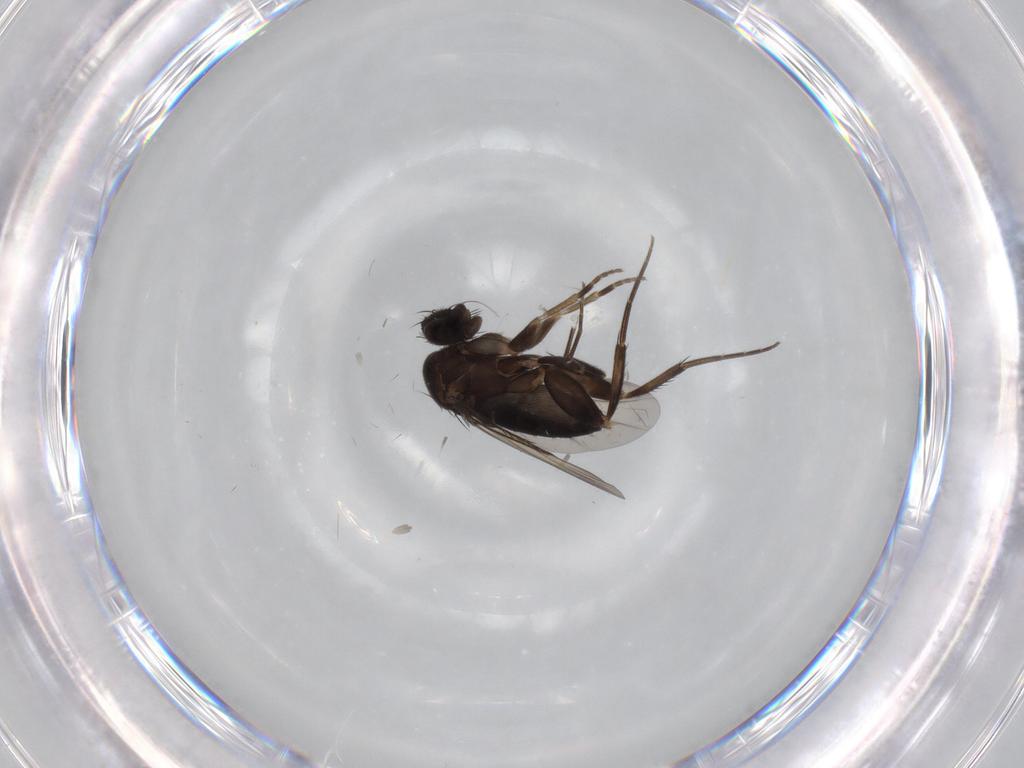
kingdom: Animalia
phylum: Arthropoda
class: Insecta
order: Diptera
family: Phoridae
